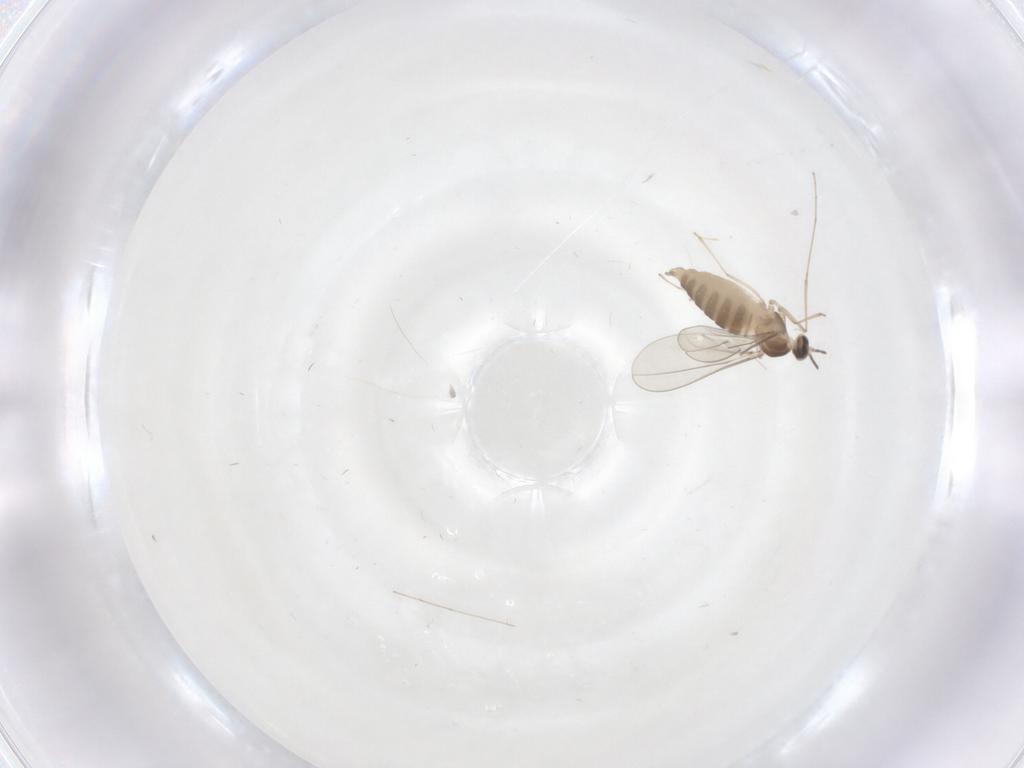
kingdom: Animalia
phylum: Arthropoda
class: Insecta
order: Diptera
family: Cecidomyiidae
